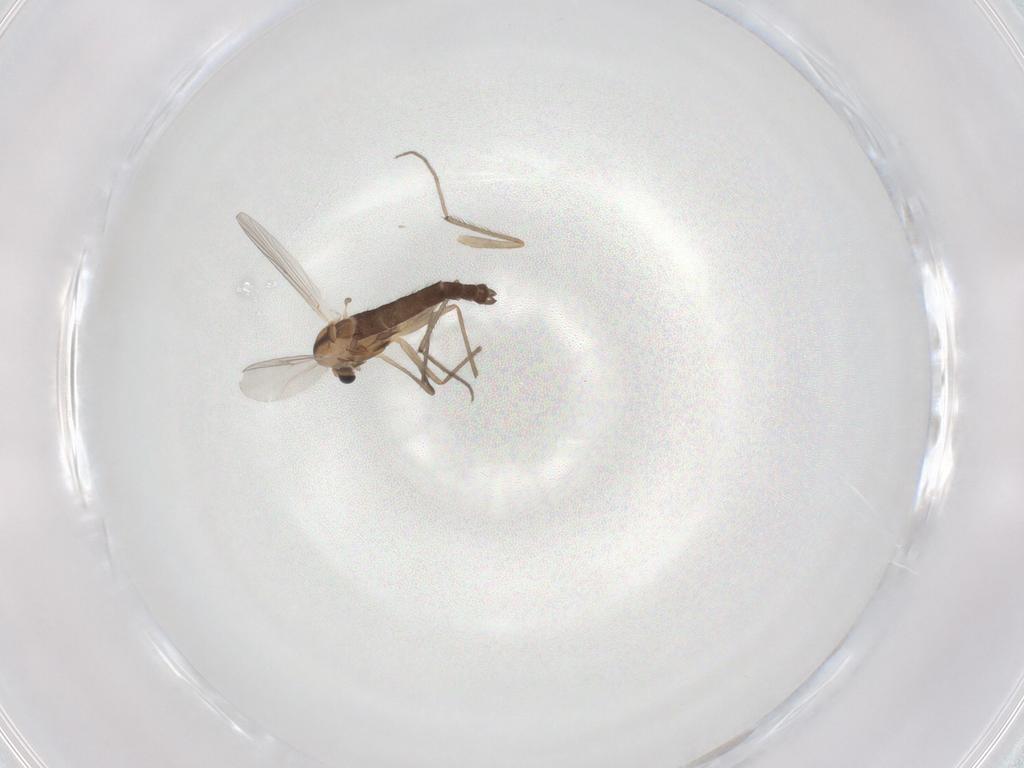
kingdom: Animalia
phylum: Arthropoda
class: Insecta
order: Diptera
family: Chironomidae
